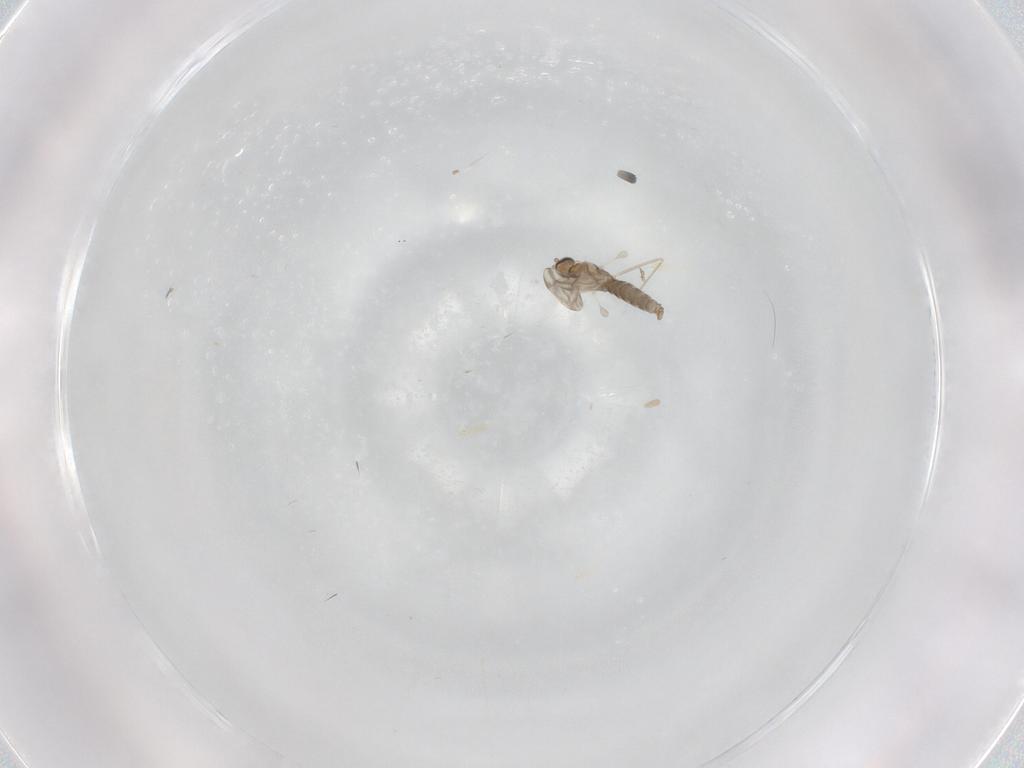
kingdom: Animalia
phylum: Arthropoda
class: Insecta
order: Diptera
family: Cecidomyiidae
